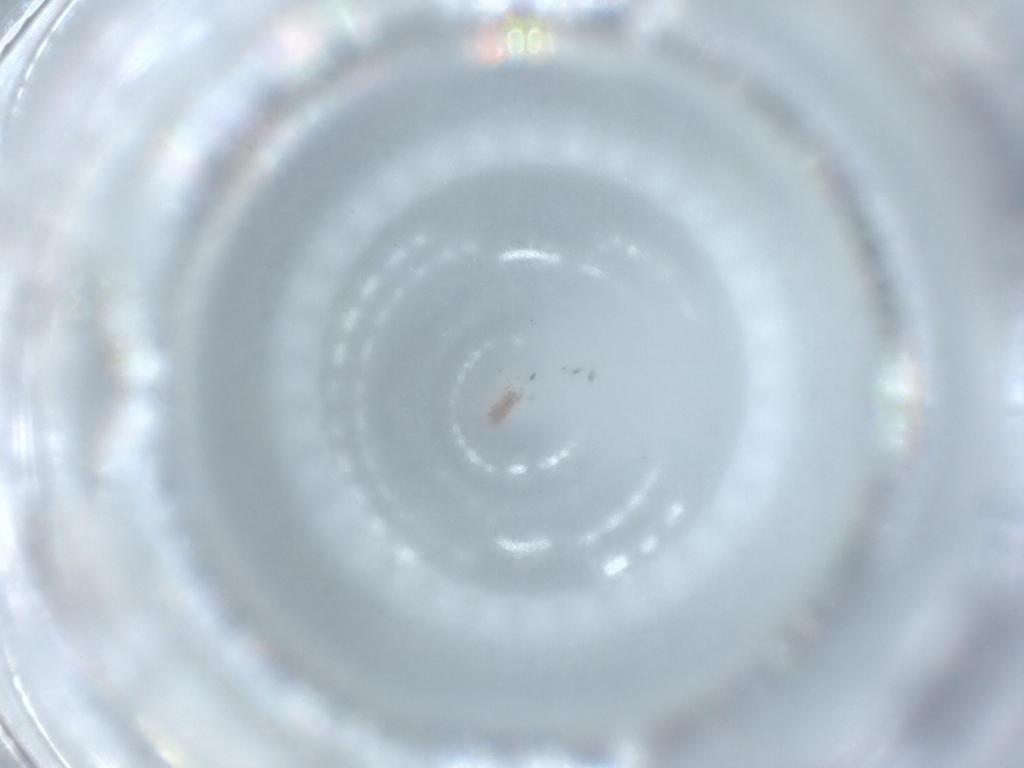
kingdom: Animalia
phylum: Arthropoda
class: Insecta
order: Diptera
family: Hybotidae
